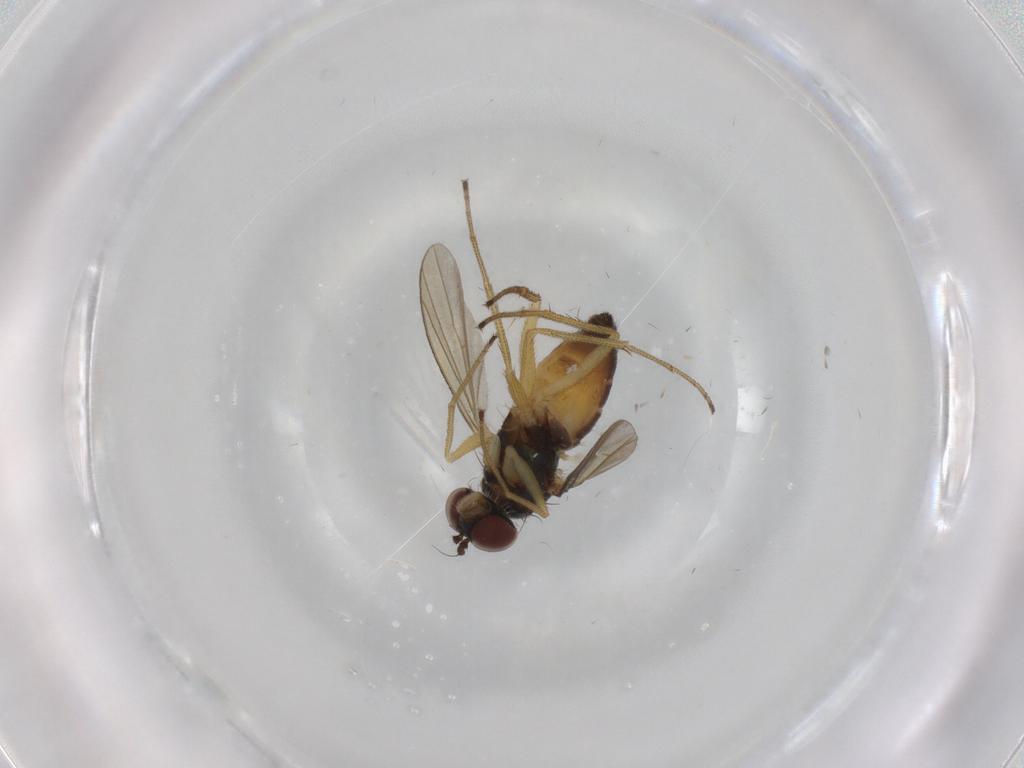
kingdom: Animalia
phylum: Arthropoda
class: Insecta
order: Diptera
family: Dolichopodidae
